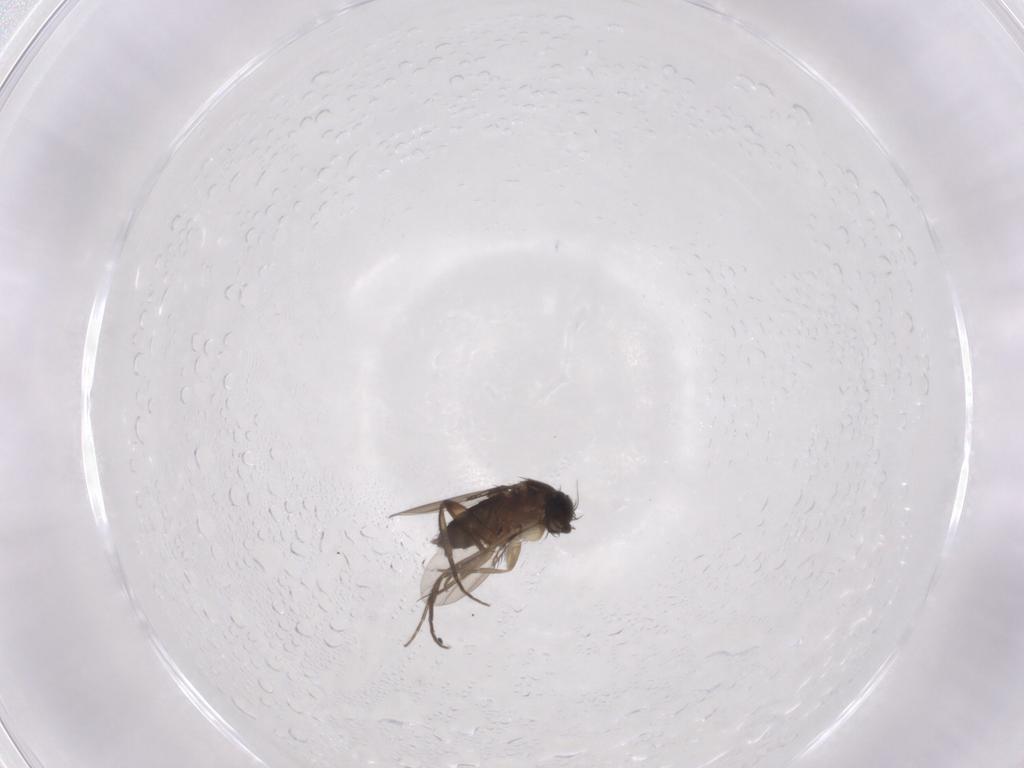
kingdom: Animalia
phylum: Arthropoda
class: Insecta
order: Diptera
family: Phoridae
